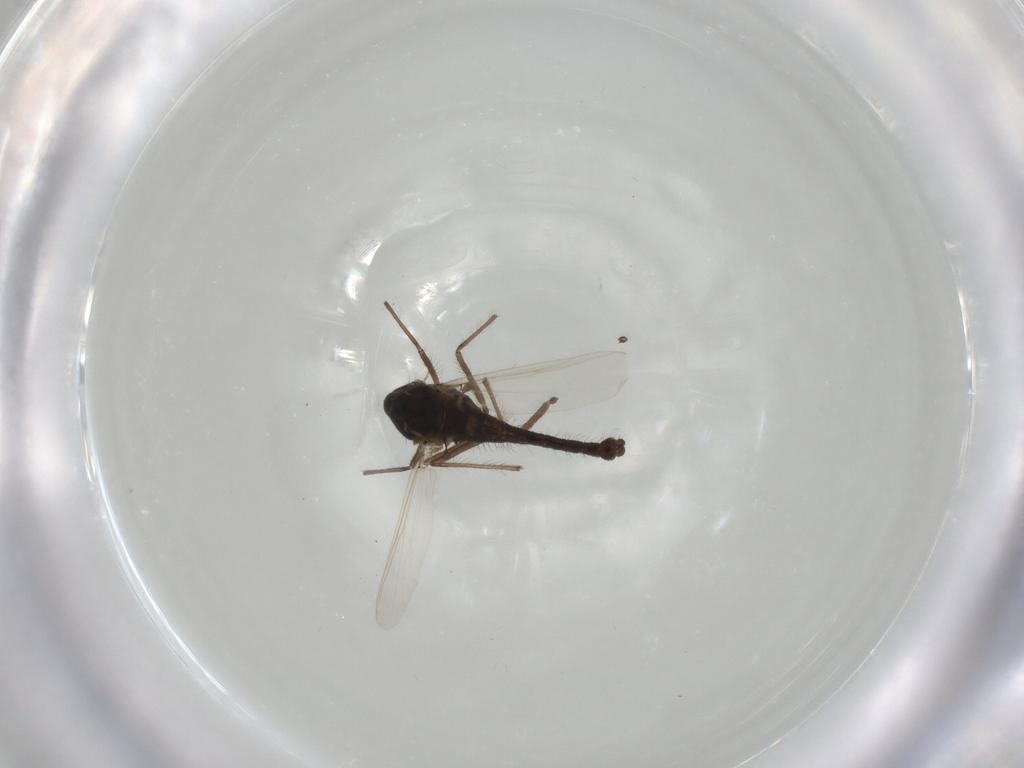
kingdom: Animalia
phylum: Arthropoda
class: Insecta
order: Diptera
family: Chironomidae
